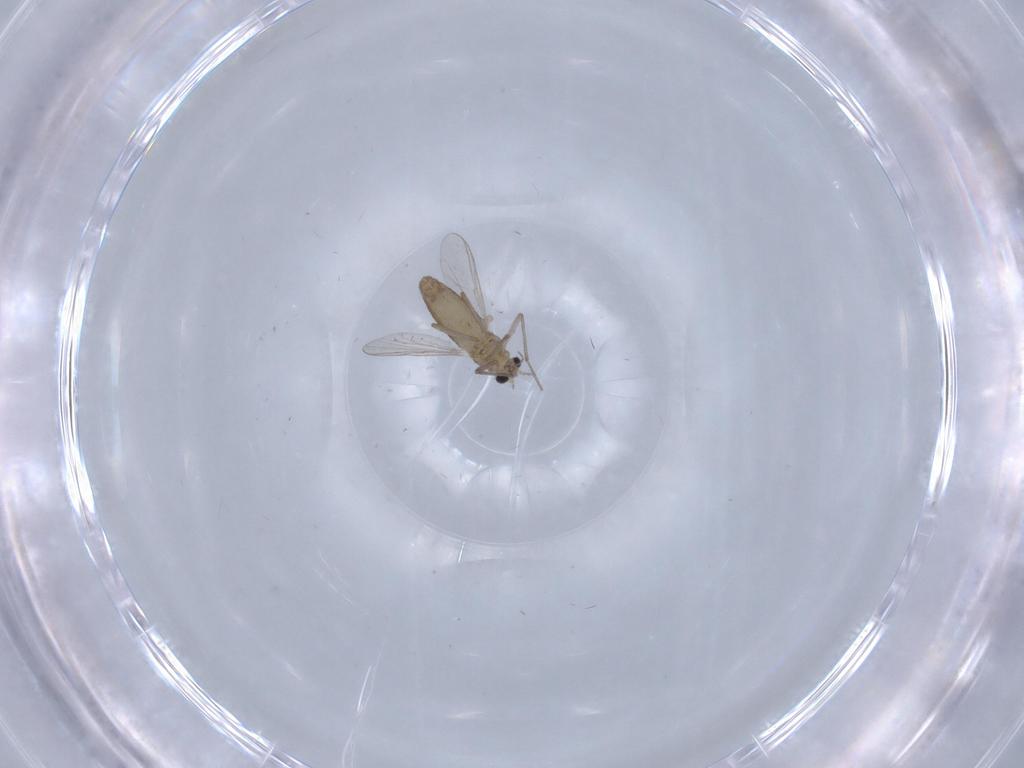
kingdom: Animalia
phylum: Arthropoda
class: Insecta
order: Diptera
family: Chironomidae
